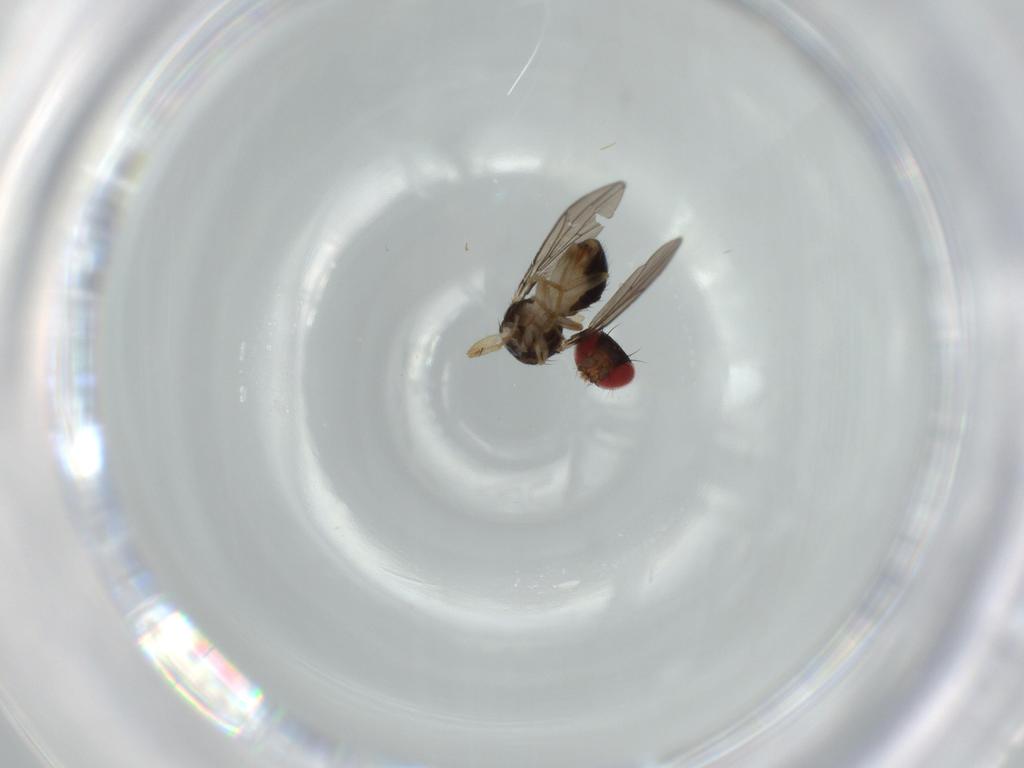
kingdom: Animalia
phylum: Arthropoda
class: Insecta
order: Diptera
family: Drosophilidae
